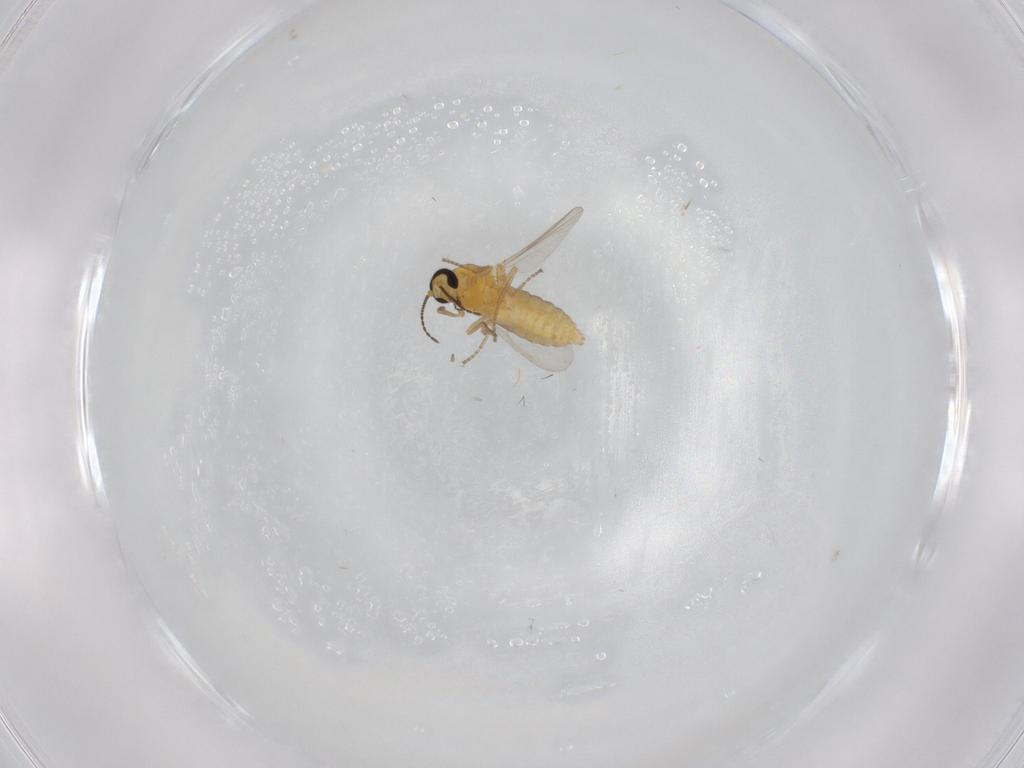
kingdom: Animalia
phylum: Arthropoda
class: Insecta
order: Diptera
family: Ceratopogonidae
